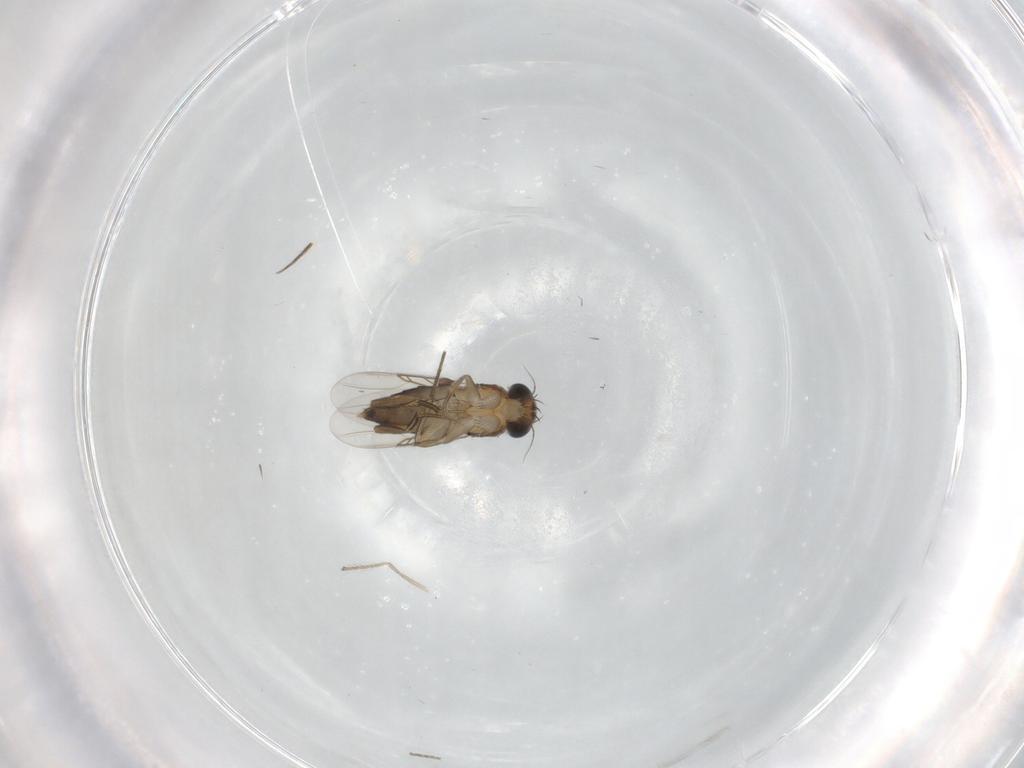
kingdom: Animalia
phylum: Arthropoda
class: Insecta
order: Diptera
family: Phoridae
